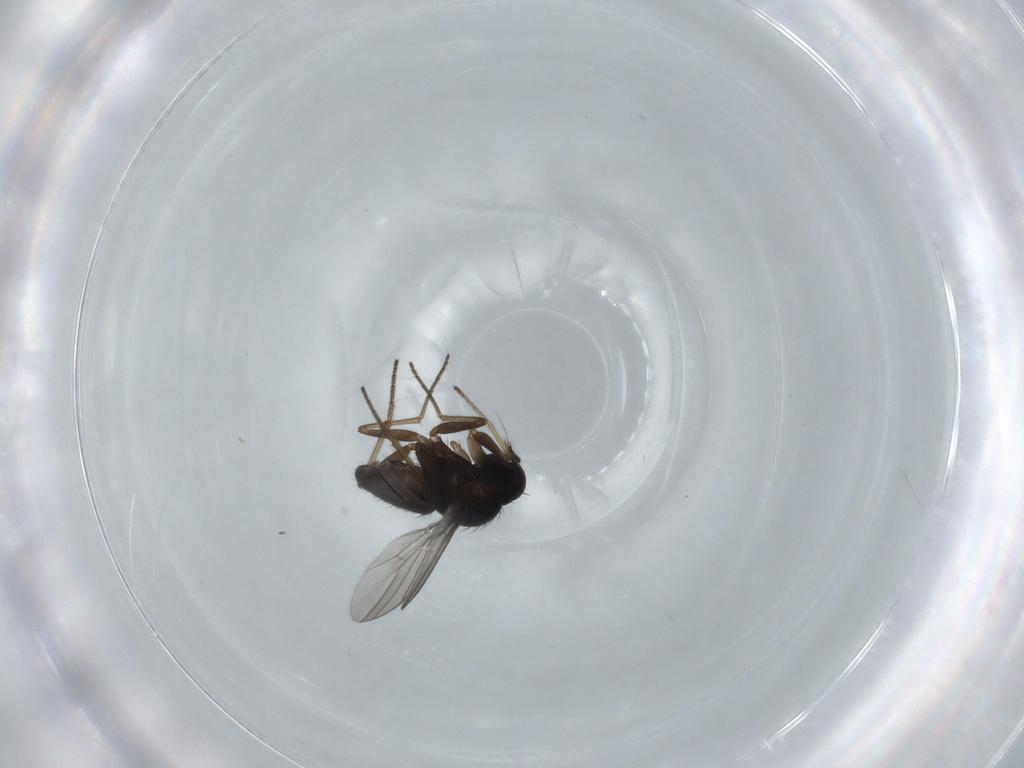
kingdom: Animalia
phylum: Arthropoda
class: Insecta
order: Diptera
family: Dolichopodidae
